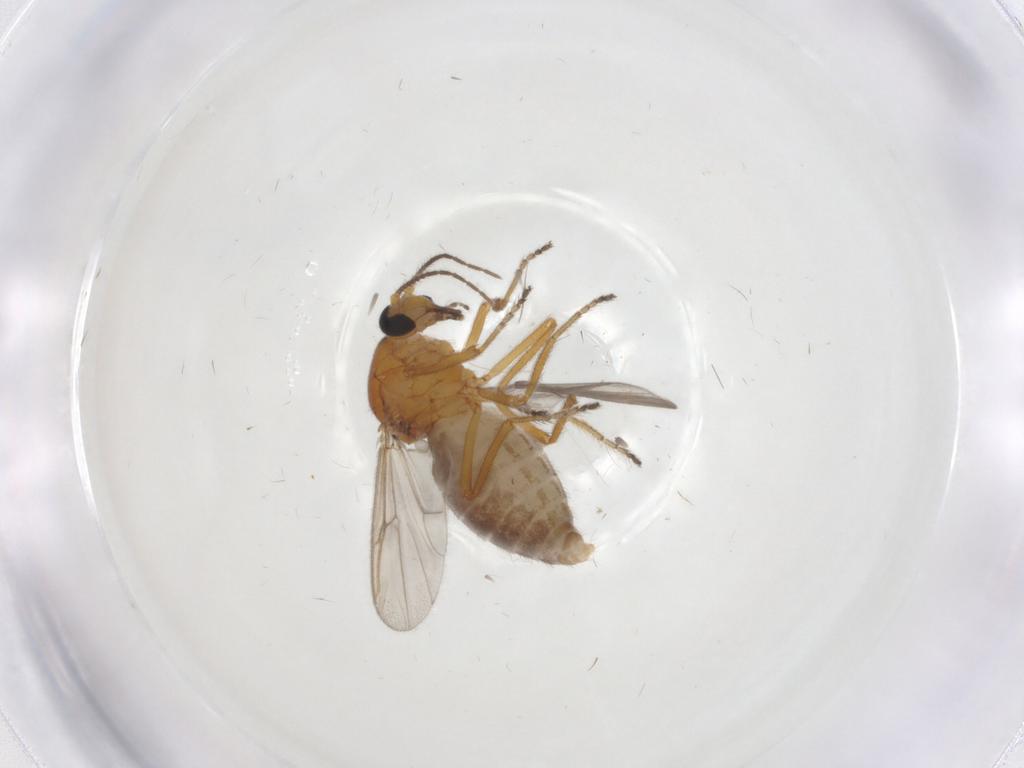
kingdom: Animalia
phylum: Arthropoda
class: Insecta
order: Diptera
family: Ceratopogonidae
